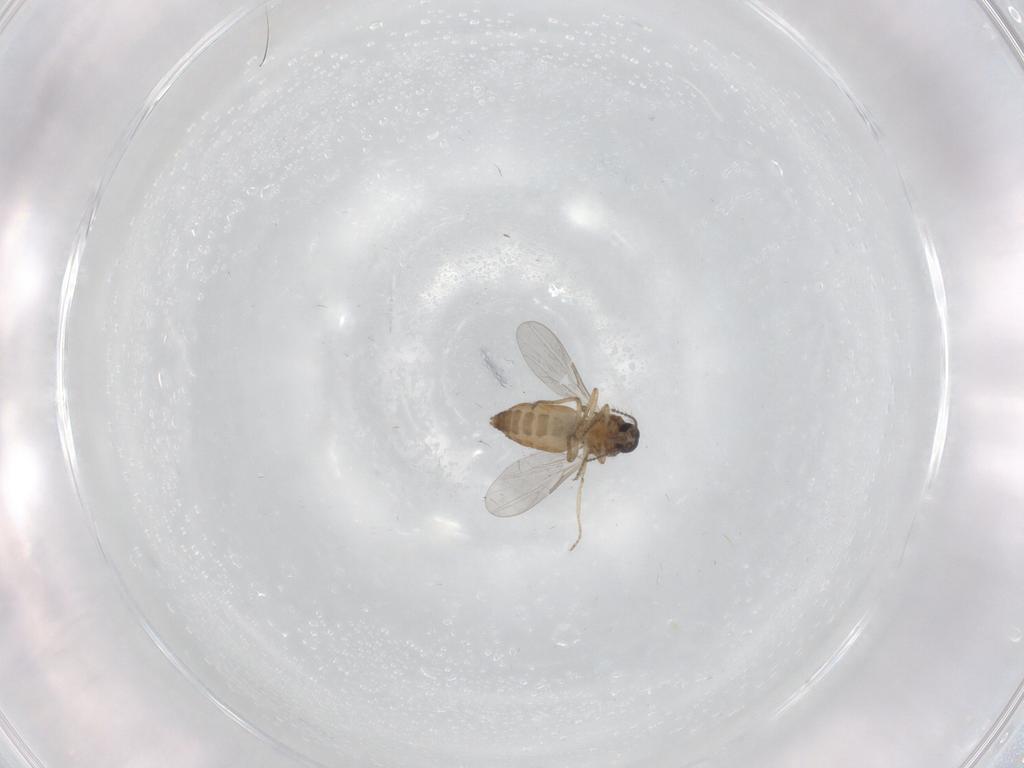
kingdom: Animalia
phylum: Arthropoda
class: Insecta
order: Diptera
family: Ceratopogonidae
